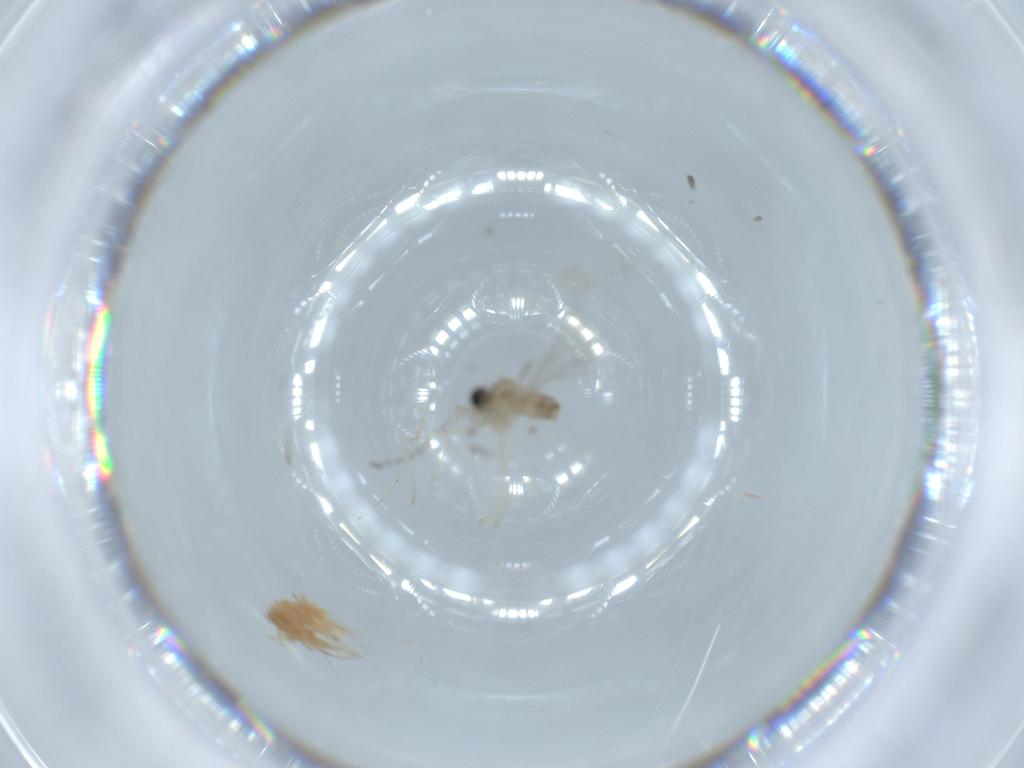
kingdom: Animalia
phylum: Arthropoda
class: Insecta
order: Diptera
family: Cecidomyiidae
